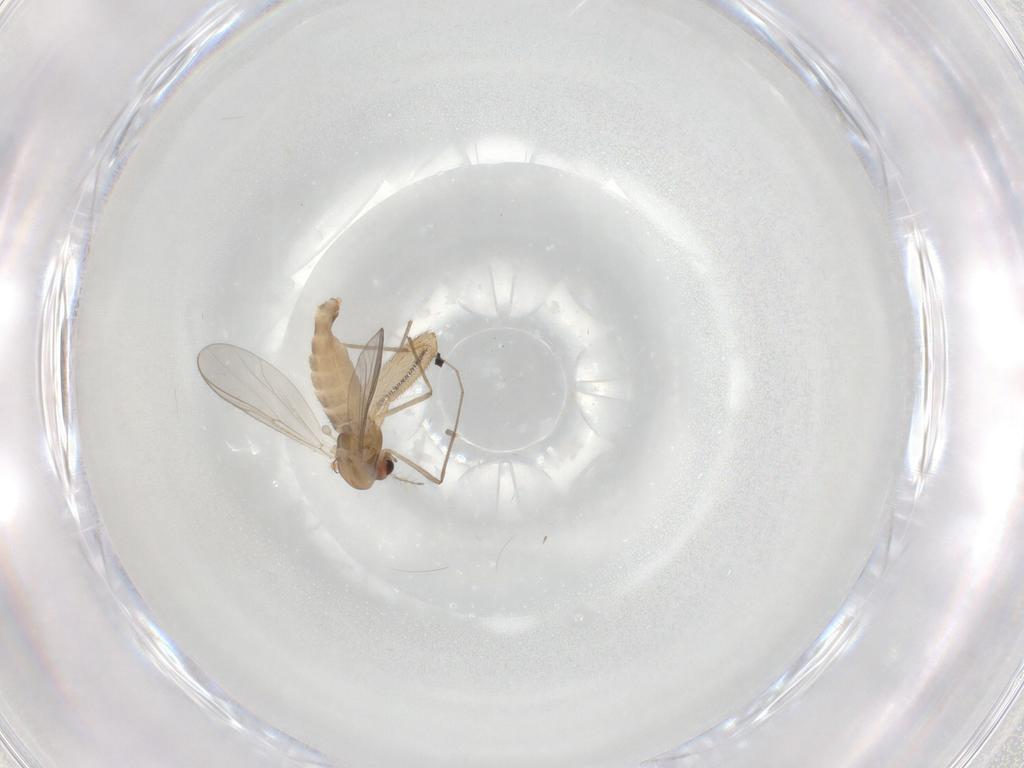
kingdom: Animalia
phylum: Arthropoda
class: Insecta
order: Diptera
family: Chironomidae
